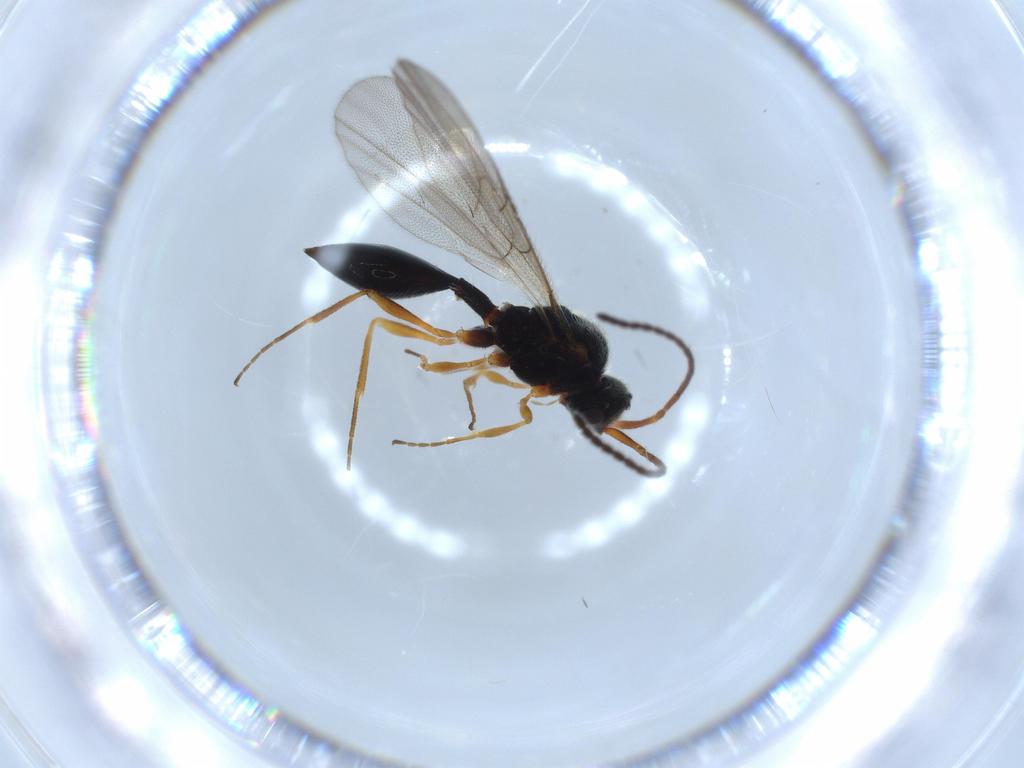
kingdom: Animalia
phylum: Arthropoda
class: Insecta
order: Hymenoptera
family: Diapriidae
